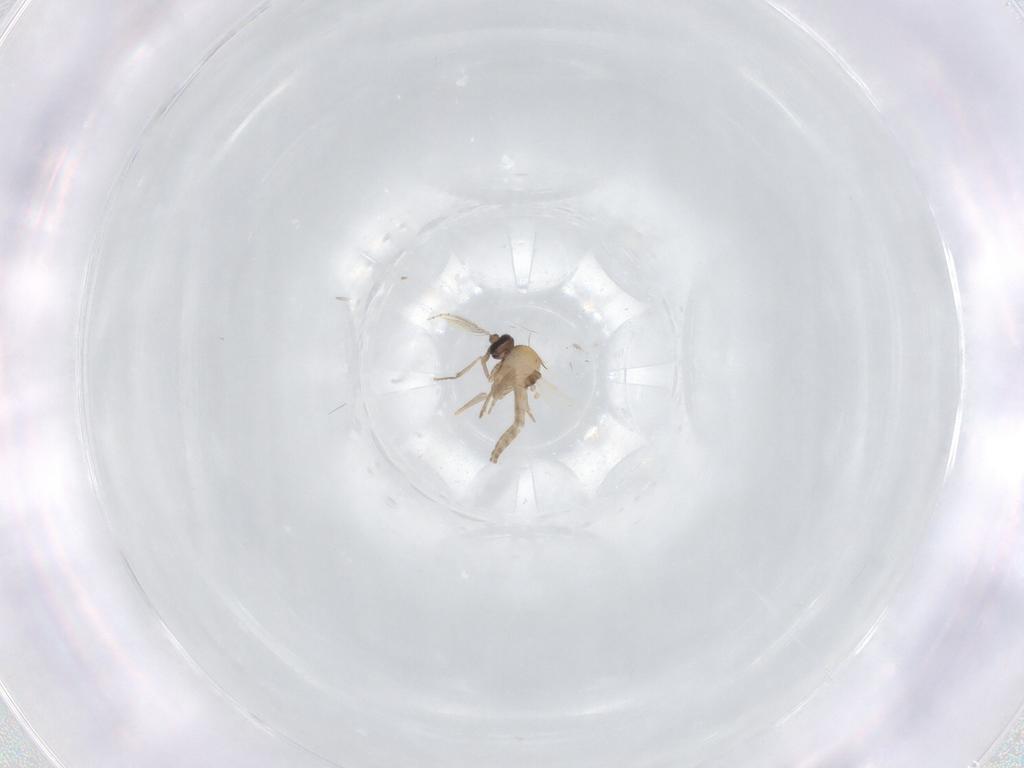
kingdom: Animalia
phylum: Arthropoda
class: Insecta
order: Diptera
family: Ceratopogonidae
